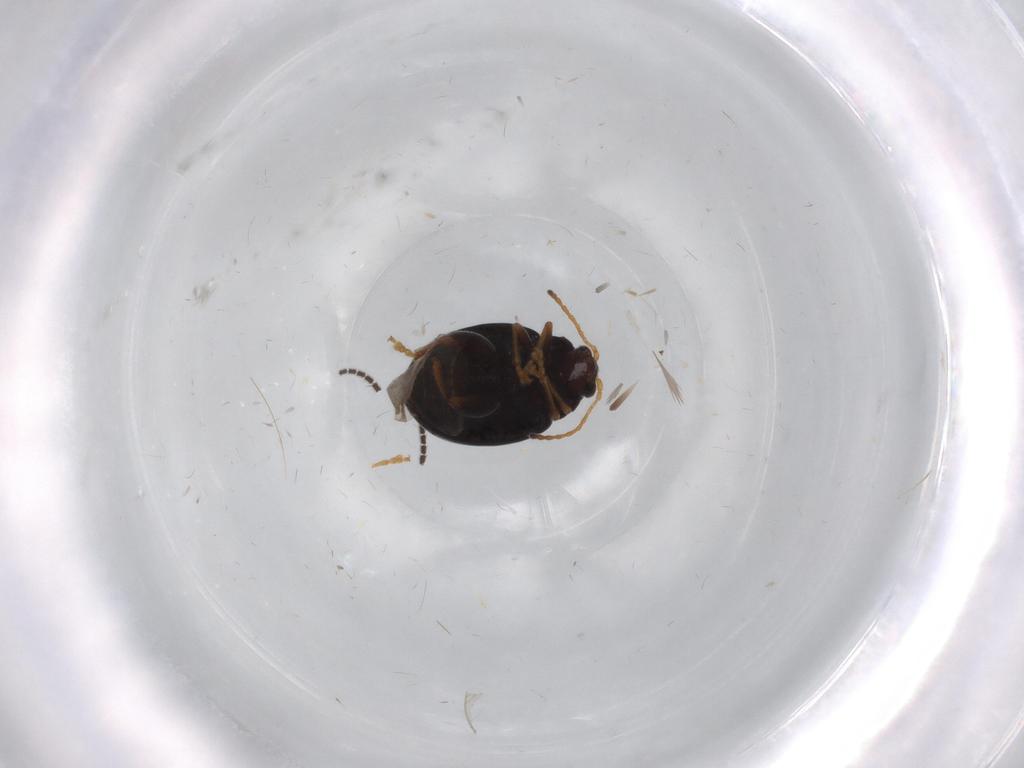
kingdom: Animalia
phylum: Arthropoda
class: Insecta
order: Coleoptera
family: Chrysomelidae
